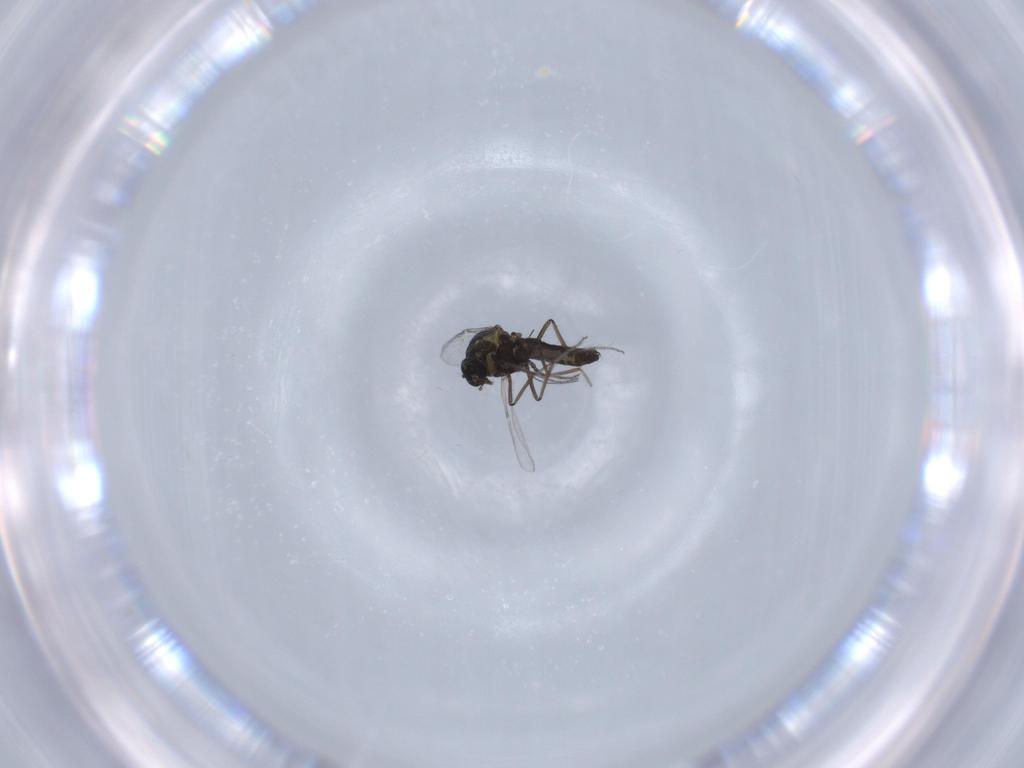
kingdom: Animalia
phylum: Arthropoda
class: Insecta
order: Diptera
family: Ceratopogonidae
